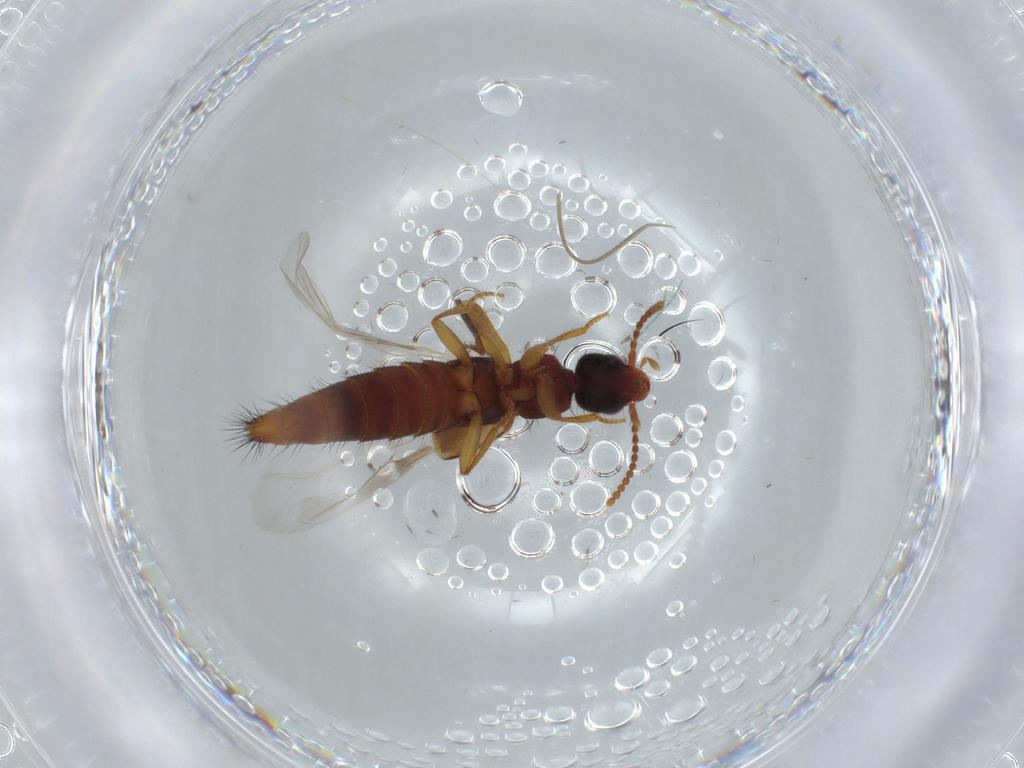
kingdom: Animalia
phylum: Arthropoda
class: Insecta
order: Coleoptera
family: Staphylinidae
